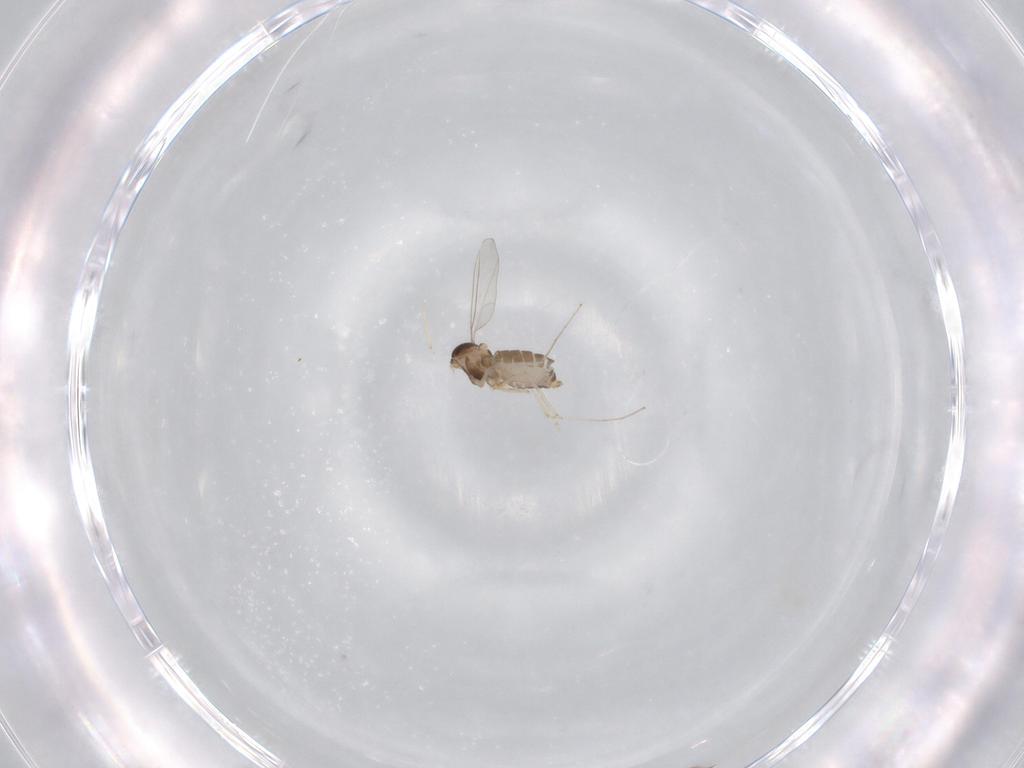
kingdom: Animalia
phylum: Arthropoda
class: Insecta
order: Diptera
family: Cecidomyiidae
